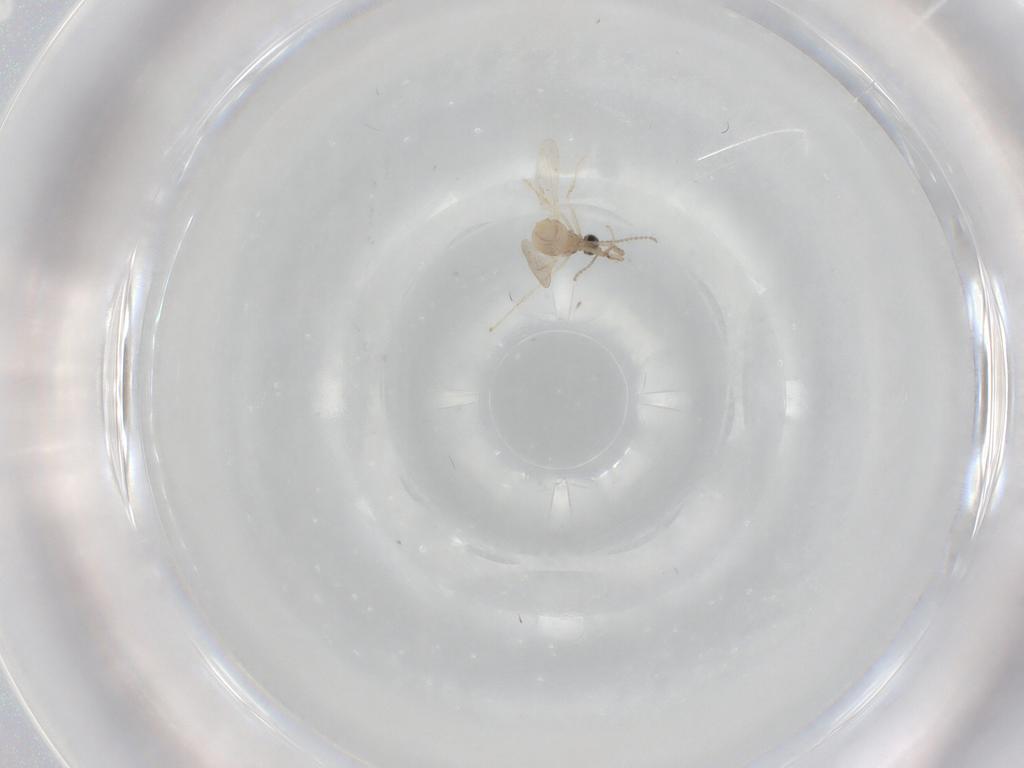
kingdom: Animalia
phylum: Arthropoda
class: Insecta
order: Diptera
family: Cecidomyiidae
